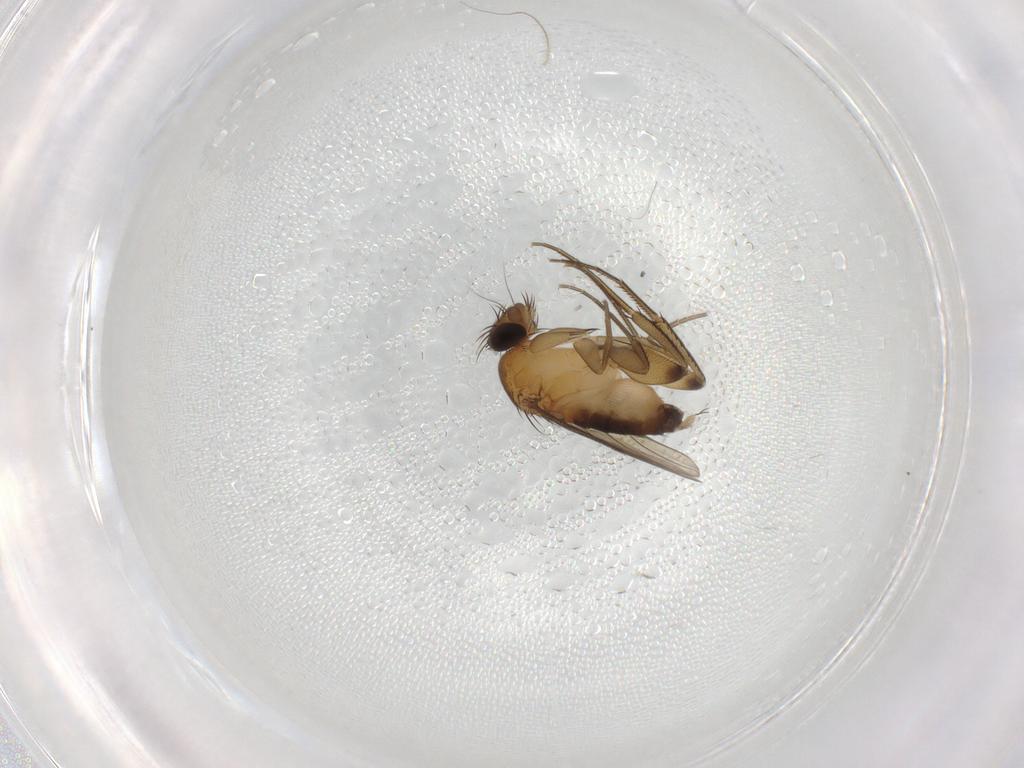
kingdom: Animalia
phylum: Arthropoda
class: Insecta
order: Diptera
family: Phoridae
